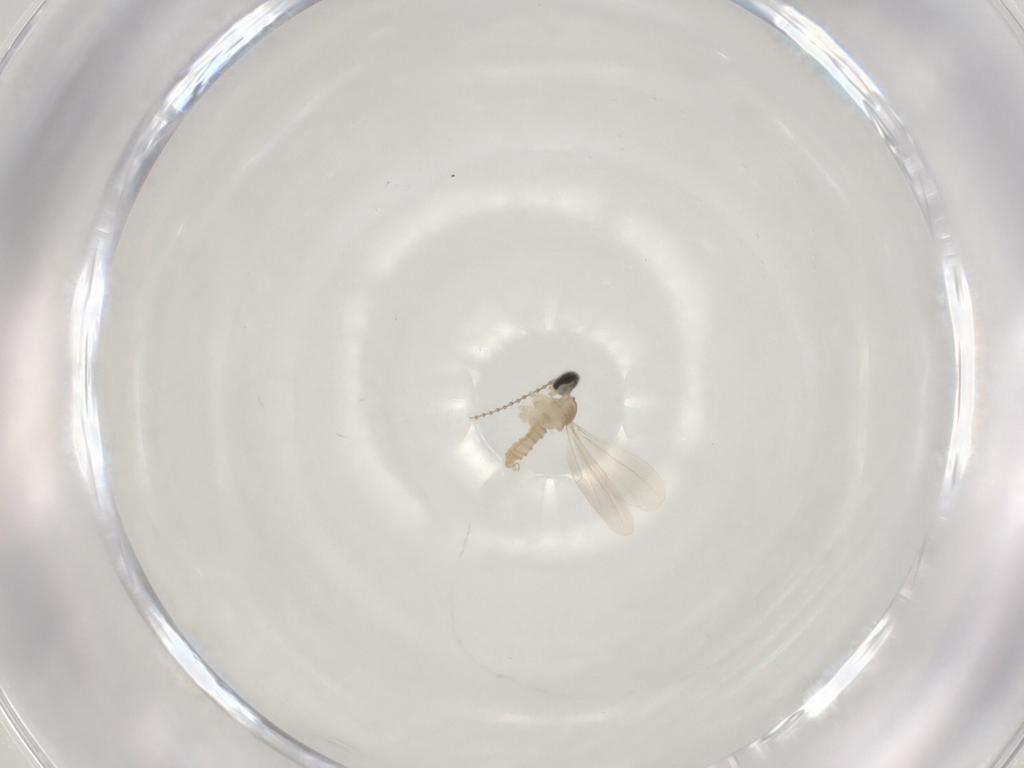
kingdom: Animalia
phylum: Arthropoda
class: Insecta
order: Diptera
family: Cecidomyiidae
